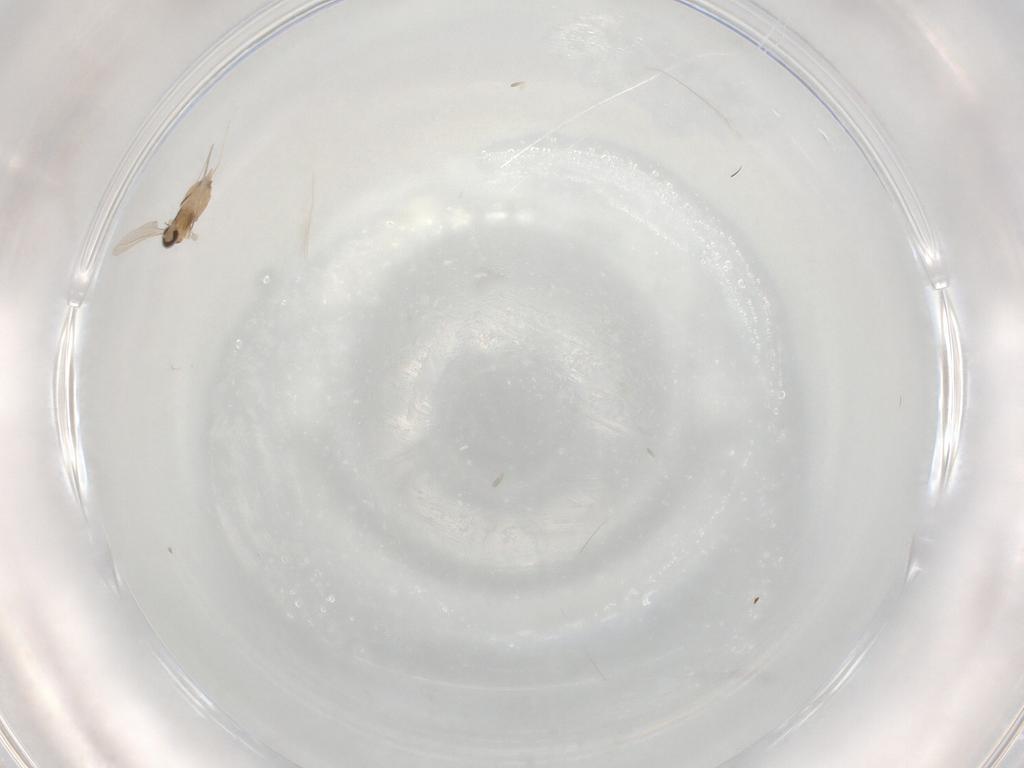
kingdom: Animalia
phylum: Arthropoda
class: Insecta
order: Diptera
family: Cecidomyiidae
